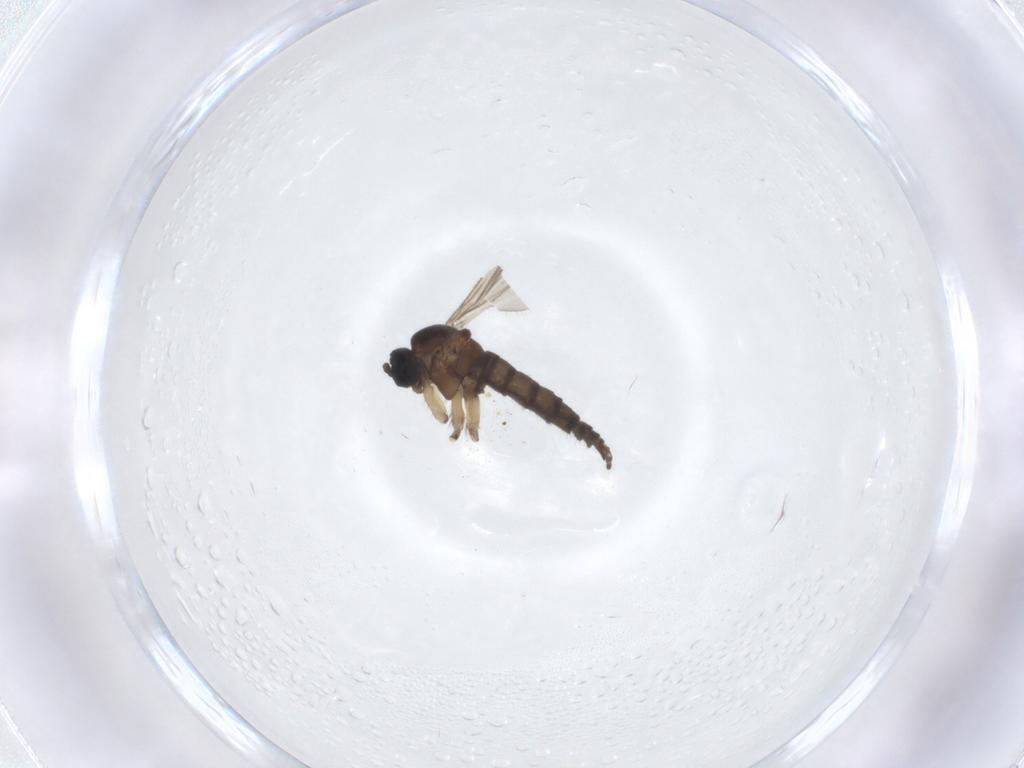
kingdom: Animalia
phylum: Arthropoda
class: Insecta
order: Diptera
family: Sciaridae
